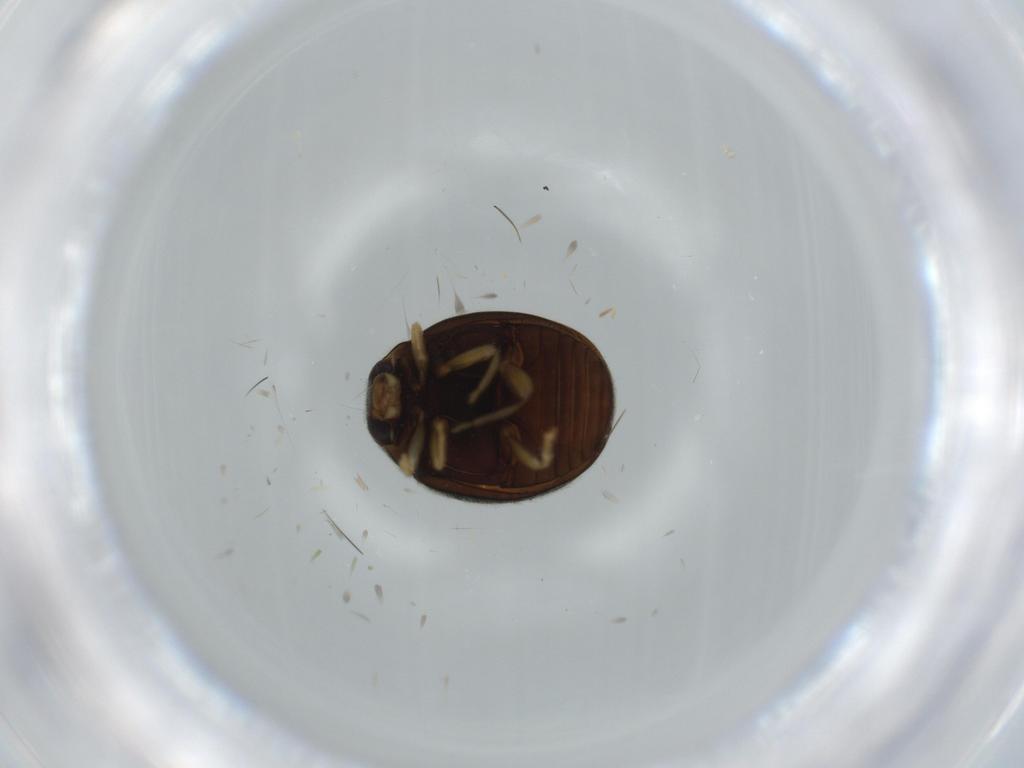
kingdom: Animalia
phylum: Arthropoda
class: Insecta
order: Coleoptera
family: Coccinellidae
